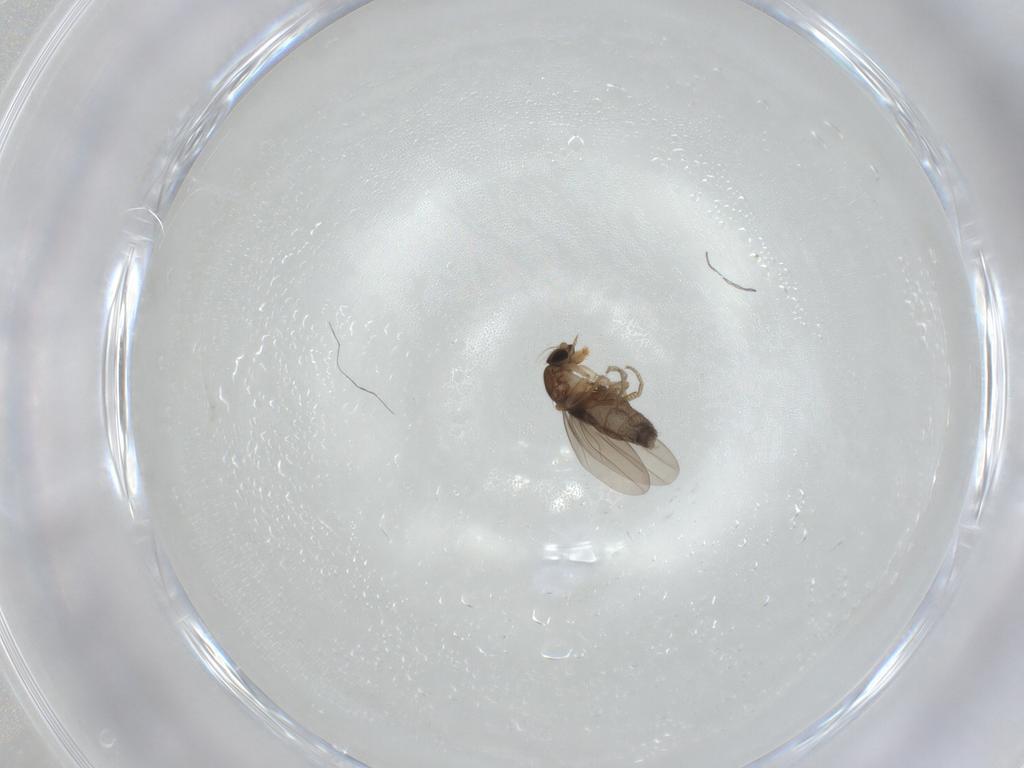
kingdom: Animalia
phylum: Arthropoda
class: Insecta
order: Diptera
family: Phoridae
